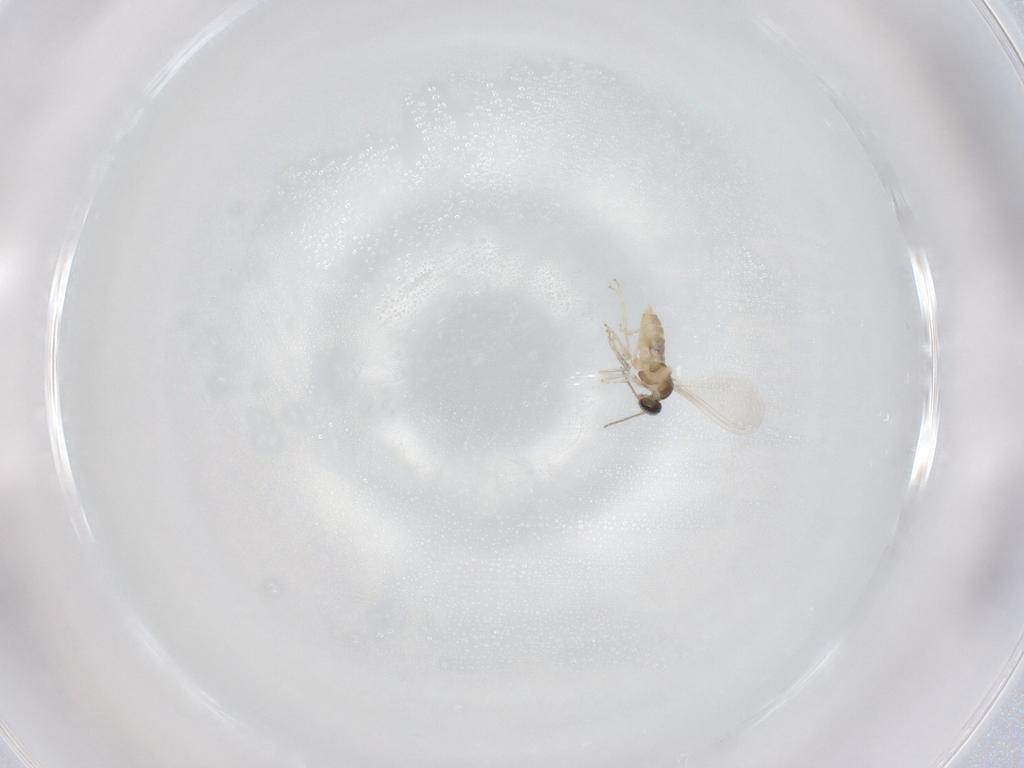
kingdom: Animalia
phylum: Arthropoda
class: Insecta
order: Diptera
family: Cecidomyiidae
